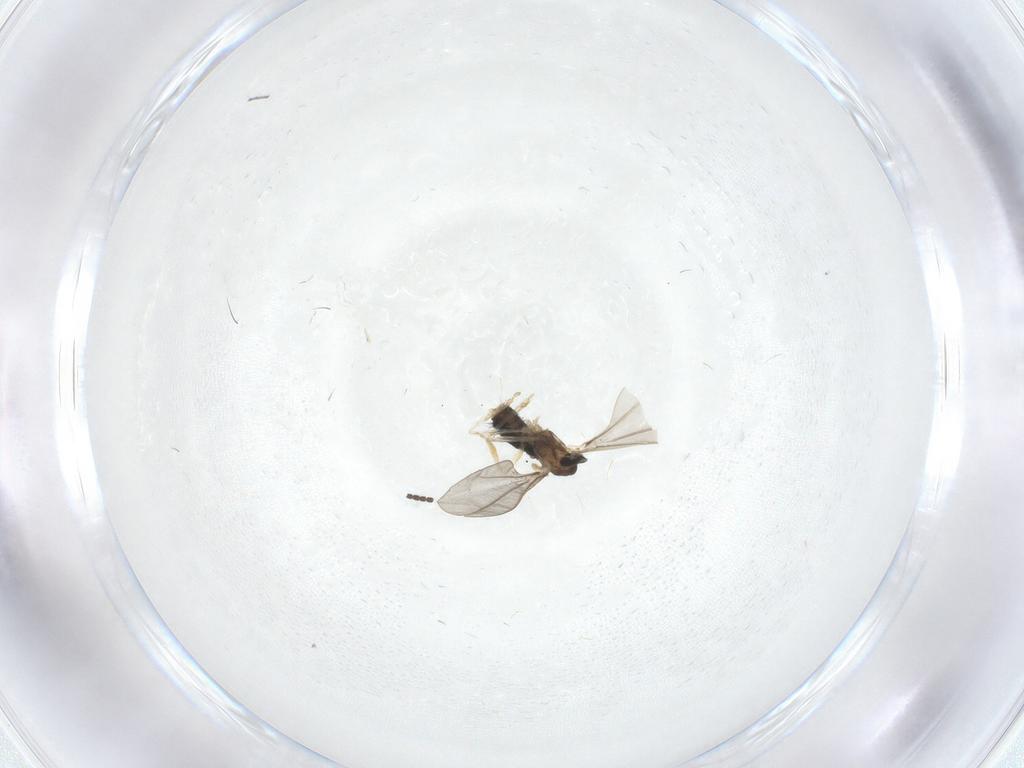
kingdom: Animalia
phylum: Arthropoda
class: Insecta
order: Diptera
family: Sciaridae
